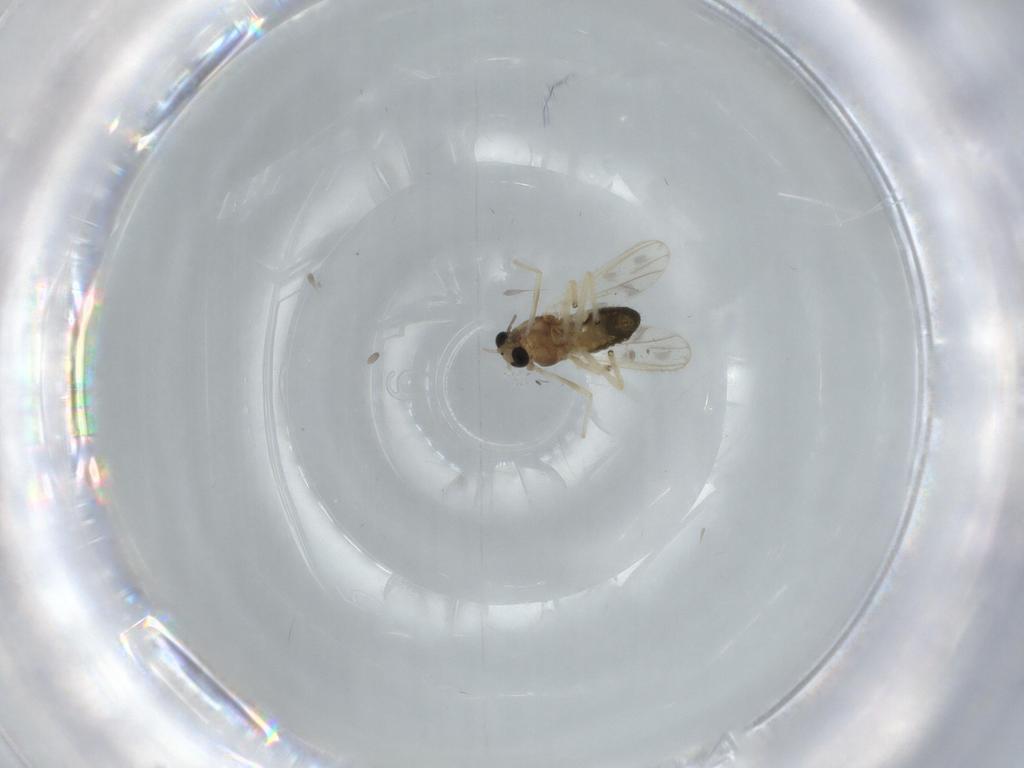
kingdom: Animalia
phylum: Arthropoda
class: Insecta
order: Diptera
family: Chironomidae
